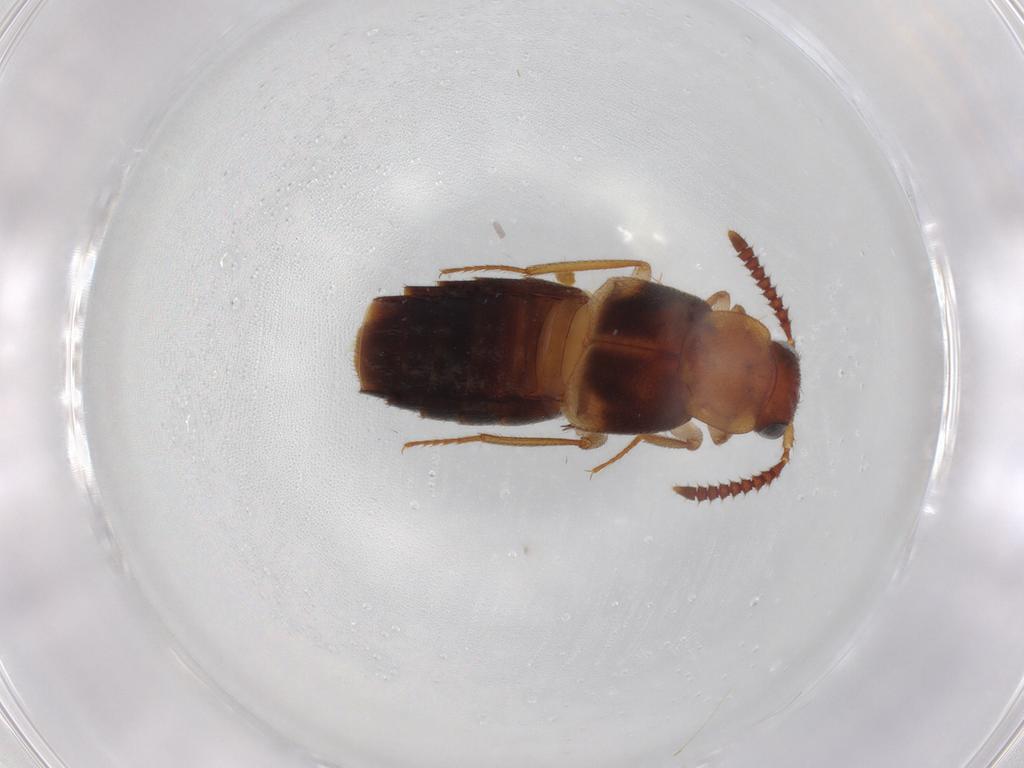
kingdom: Animalia
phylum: Arthropoda
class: Insecta
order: Coleoptera
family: Staphylinidae
